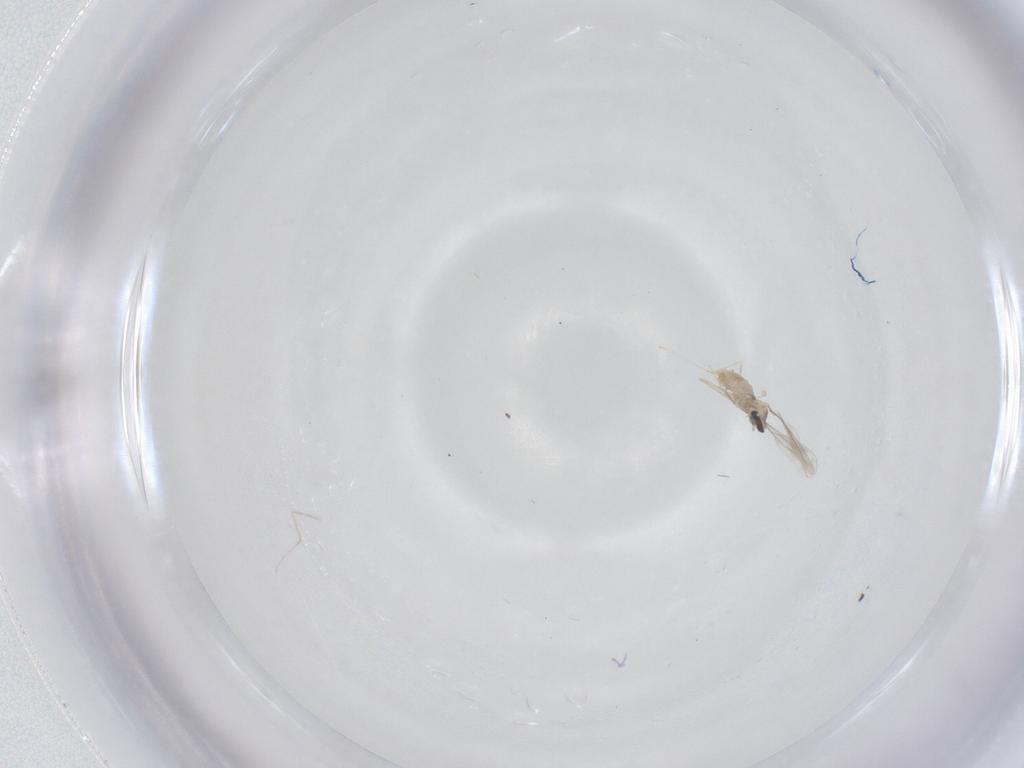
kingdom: Animalia
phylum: Arthropoda
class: Insecta
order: Diptera
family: Cecidomyiidae
